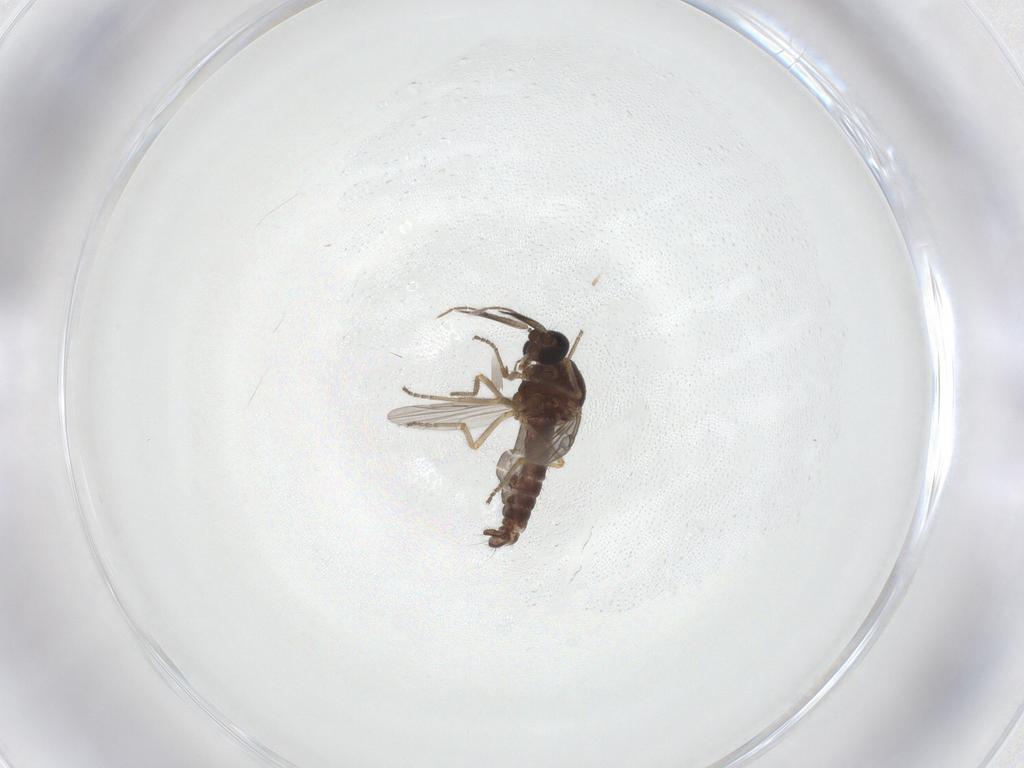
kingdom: Animalia
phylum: Arthropoda
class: Insecta
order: Diptera
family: Ceratopogonidae
